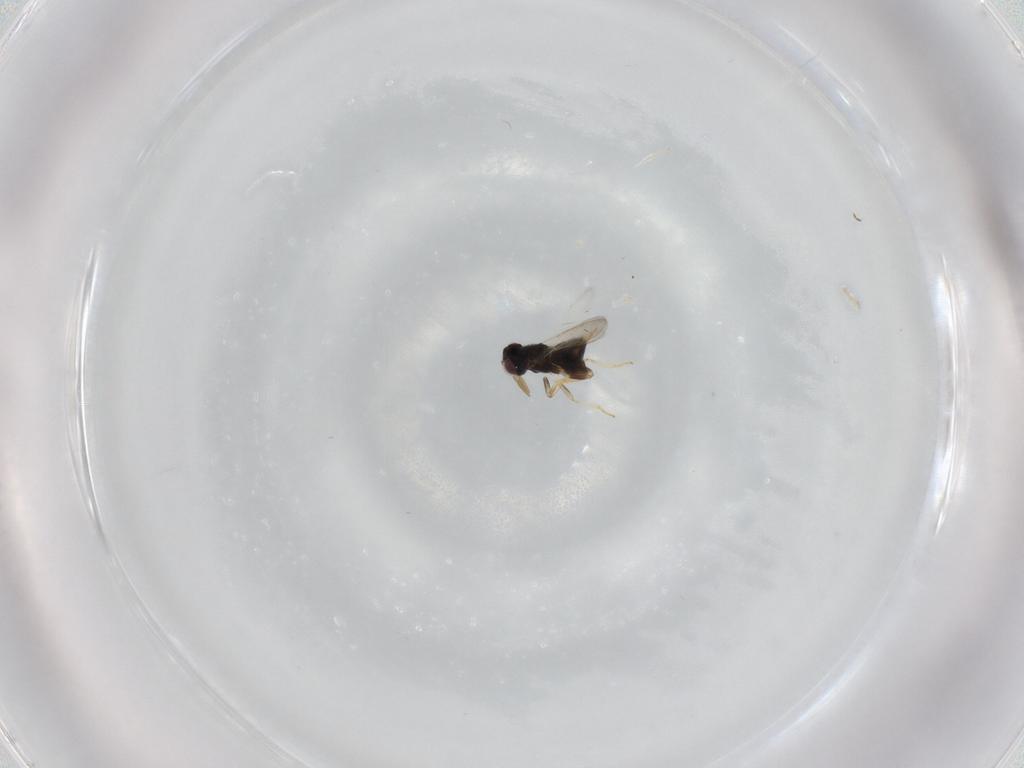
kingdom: Animalia
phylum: Arthropoda
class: Insecta
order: Hymenoptera
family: Aphelinidae
